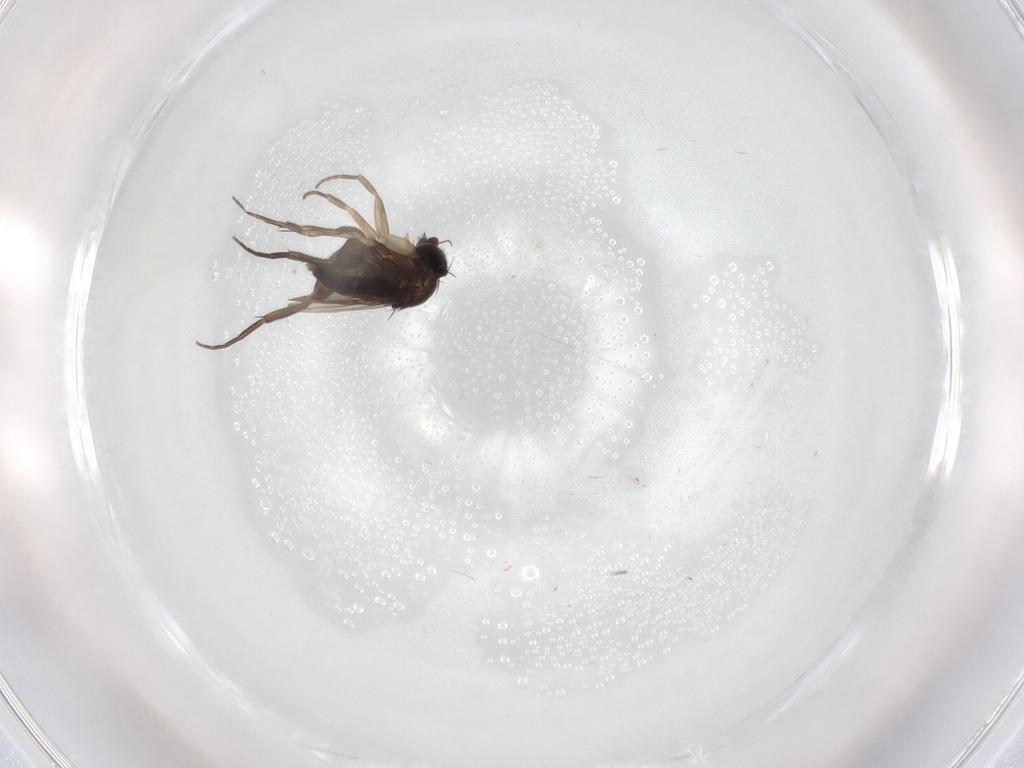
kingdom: Animalia
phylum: Arthropoda
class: Insecta
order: Diptera
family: Phoridae
